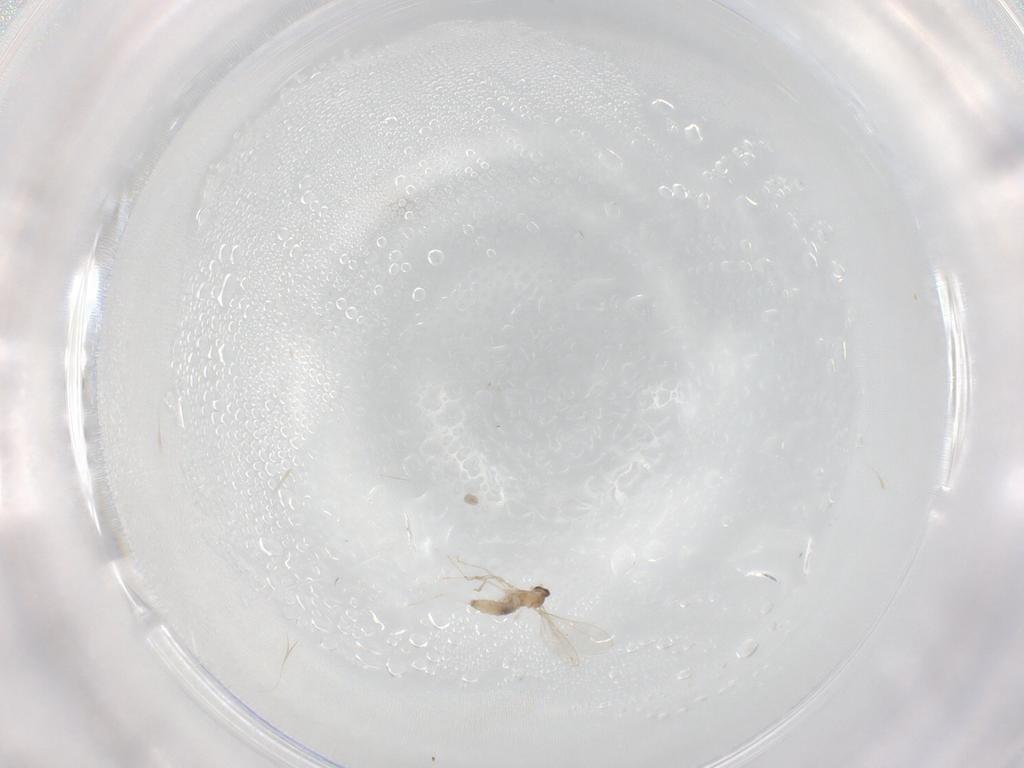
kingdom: Animalia
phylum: Arthropoda
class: Insecta
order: Diptera
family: Cecidomyiidae
